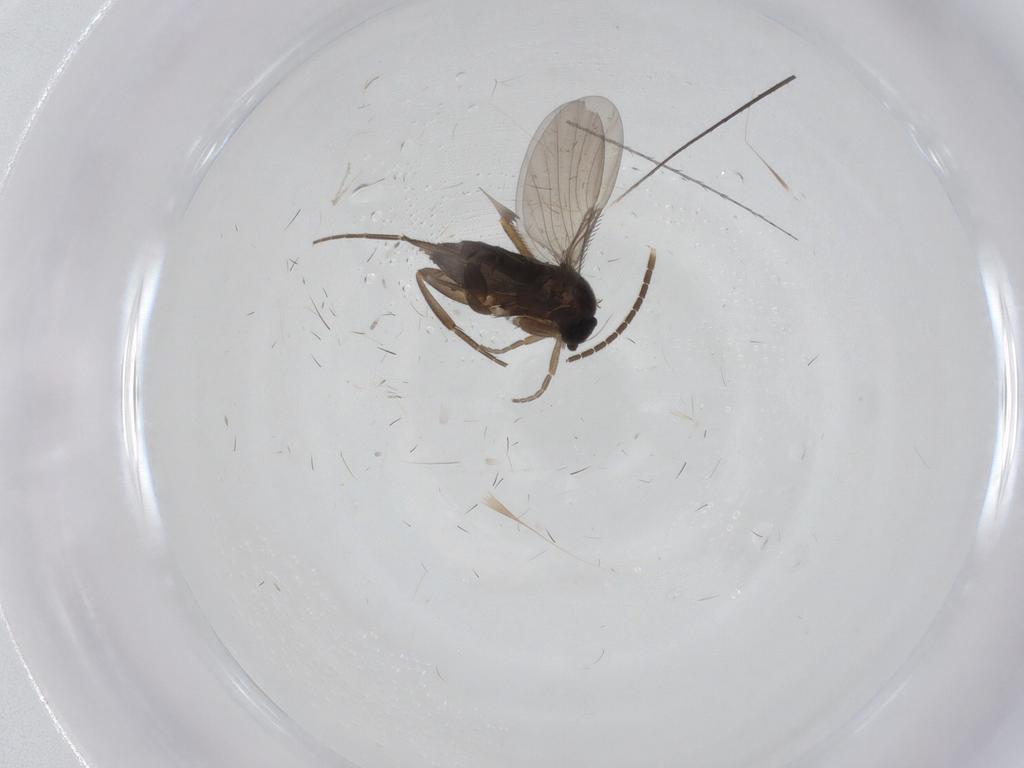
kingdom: Animalia
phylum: Arthropoda
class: Insecta
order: Diptera
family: Phoridae
